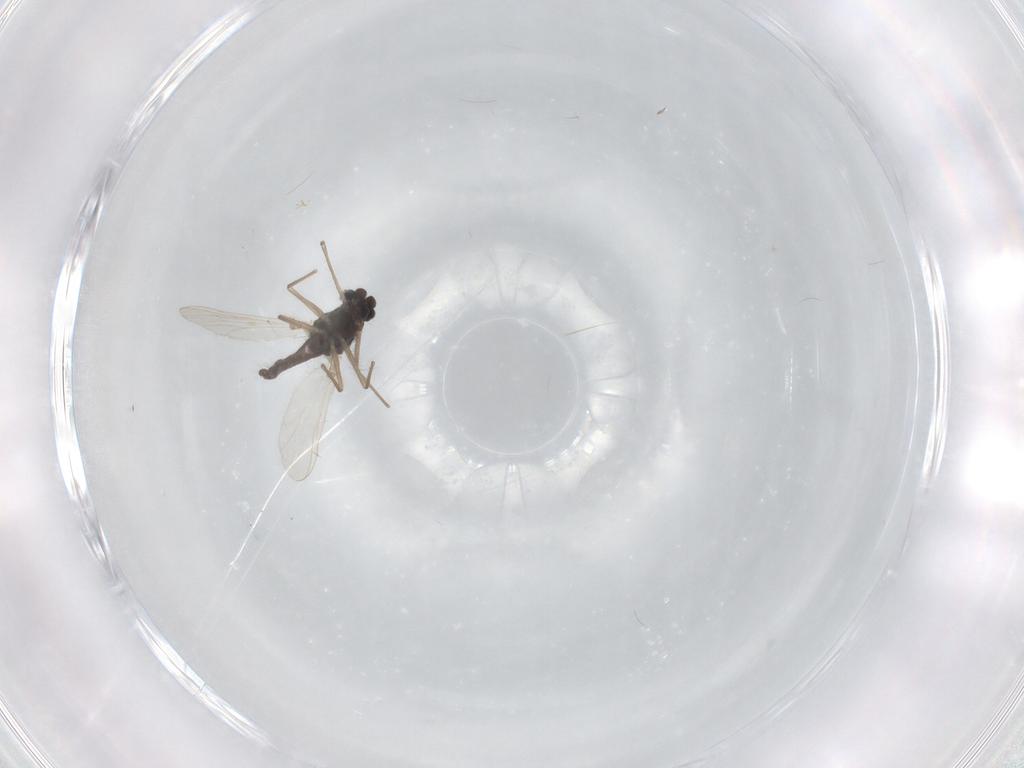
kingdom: Animalia
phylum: Arthropoda
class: Insecta
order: Diptera
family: Chironomidae
